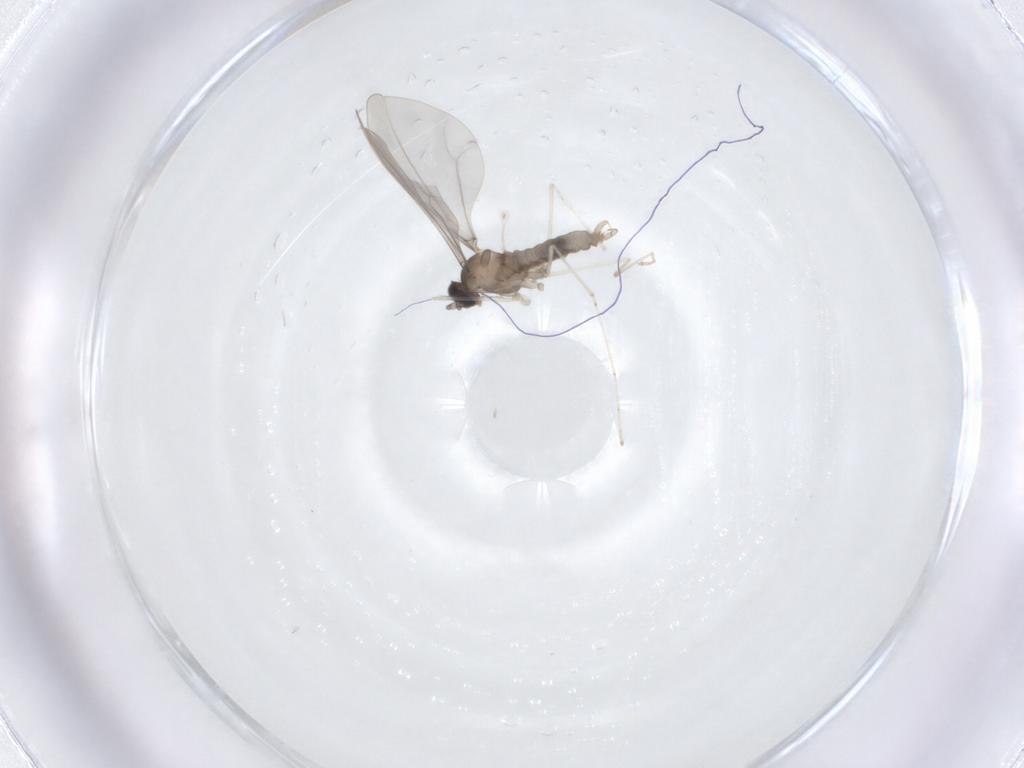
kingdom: Animalia
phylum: Arthropoda
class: Insecta
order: Diptera
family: Cecidomyiidae
